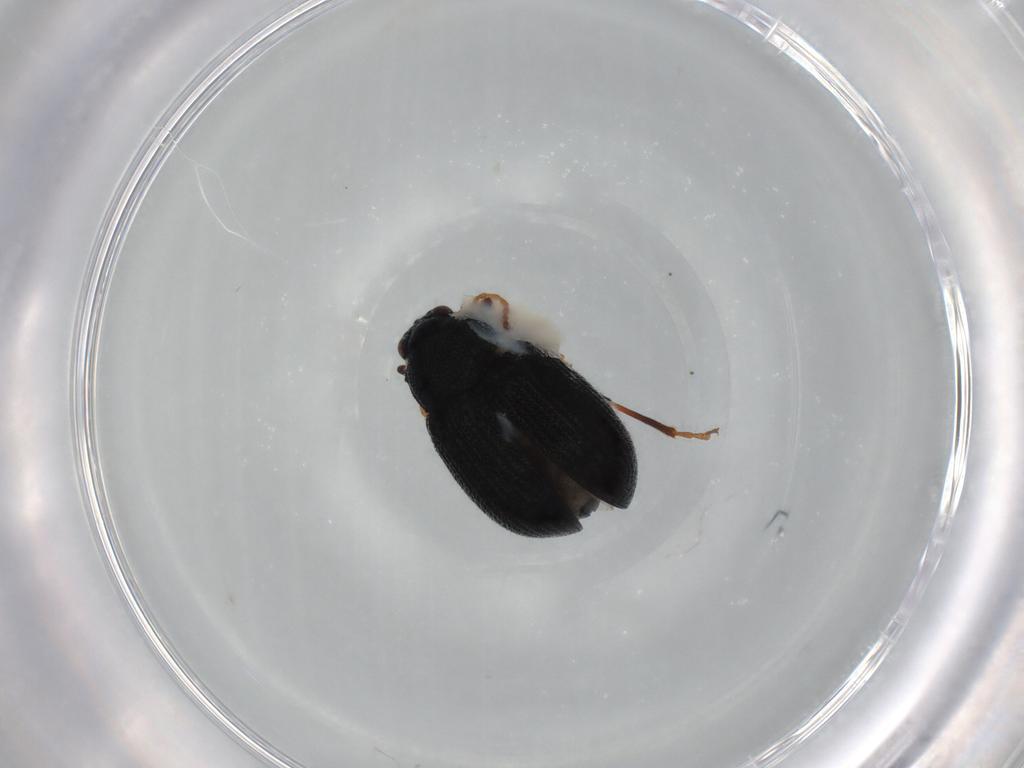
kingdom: Animalia
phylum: Arthropoda
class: Insecta
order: Coleoptera
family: Chrysomelidae
